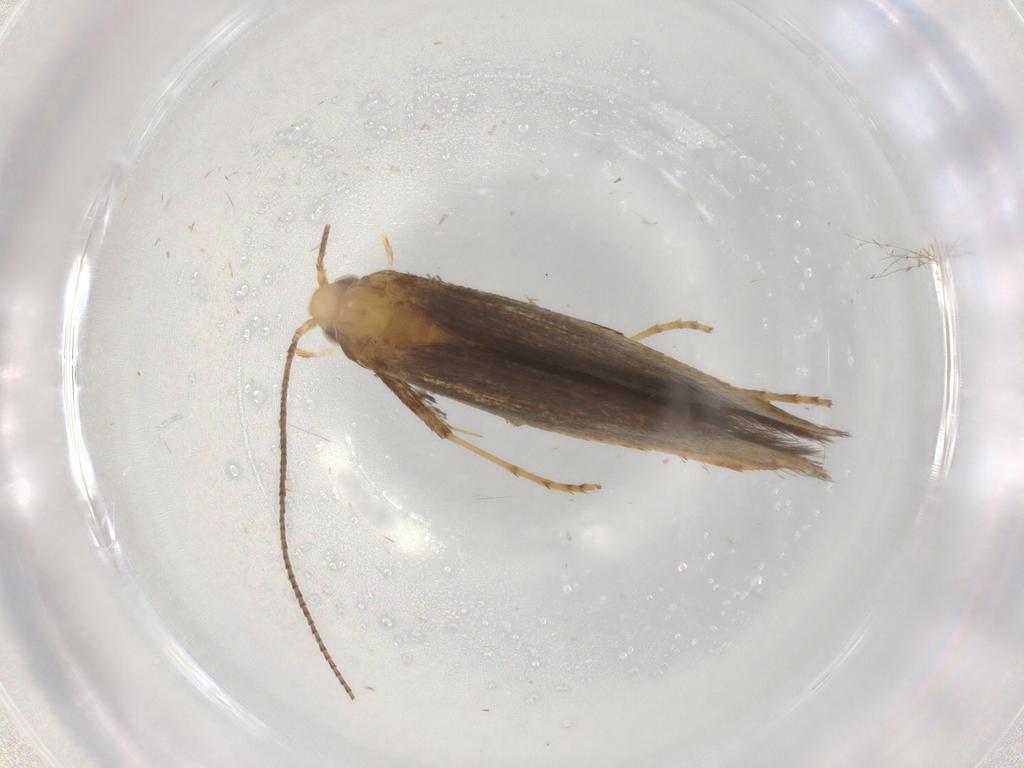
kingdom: Animalia
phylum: Arthropoda
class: Insecta
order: Lepidoptera
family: Gracillariidae
